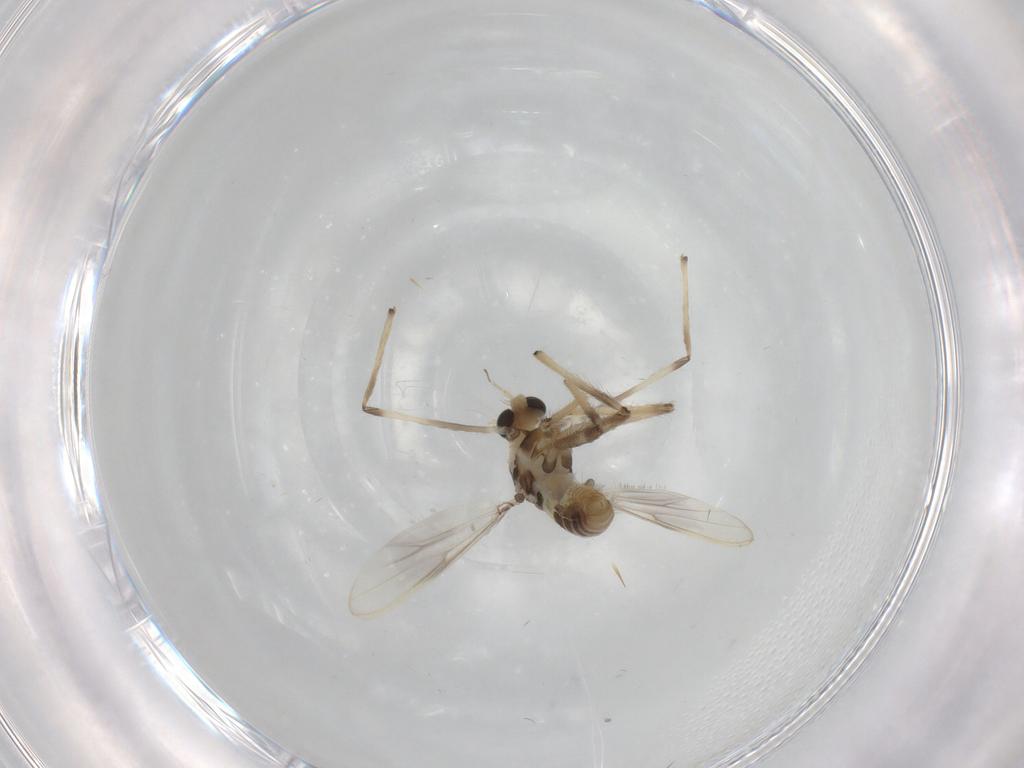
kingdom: Animalia
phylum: Arthropoda
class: Insecta
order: Diptera
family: Chironomidae
